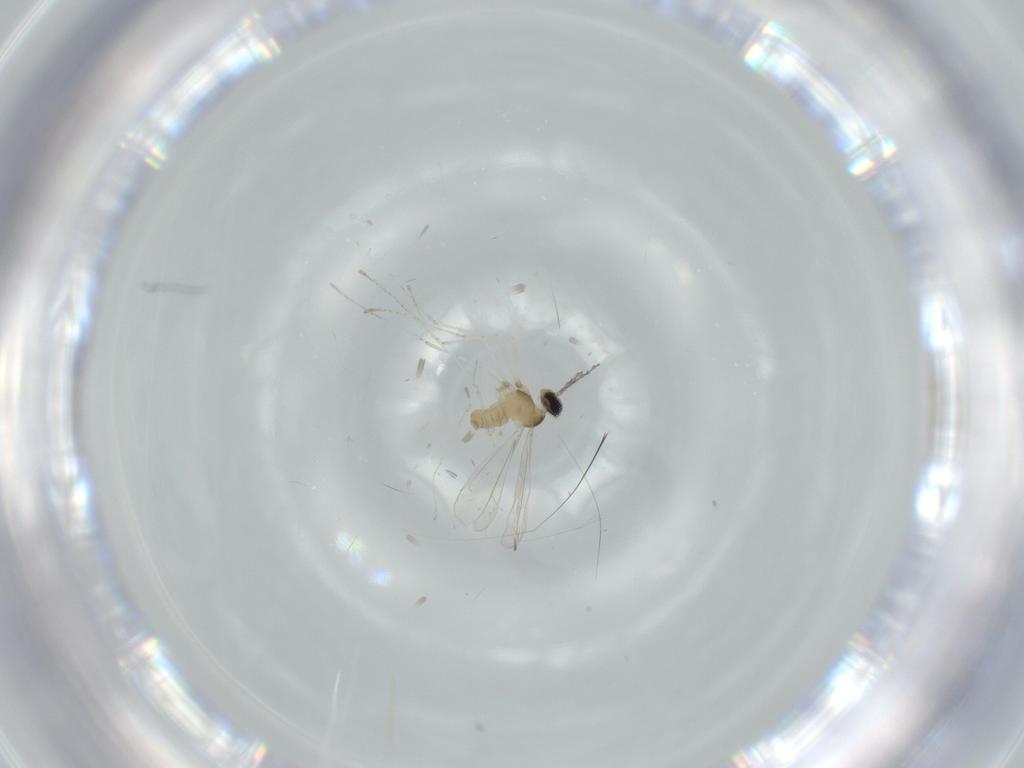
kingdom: Animalia
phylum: Arthropoda
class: Insecta
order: Diptera
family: Cecidomyiidae
